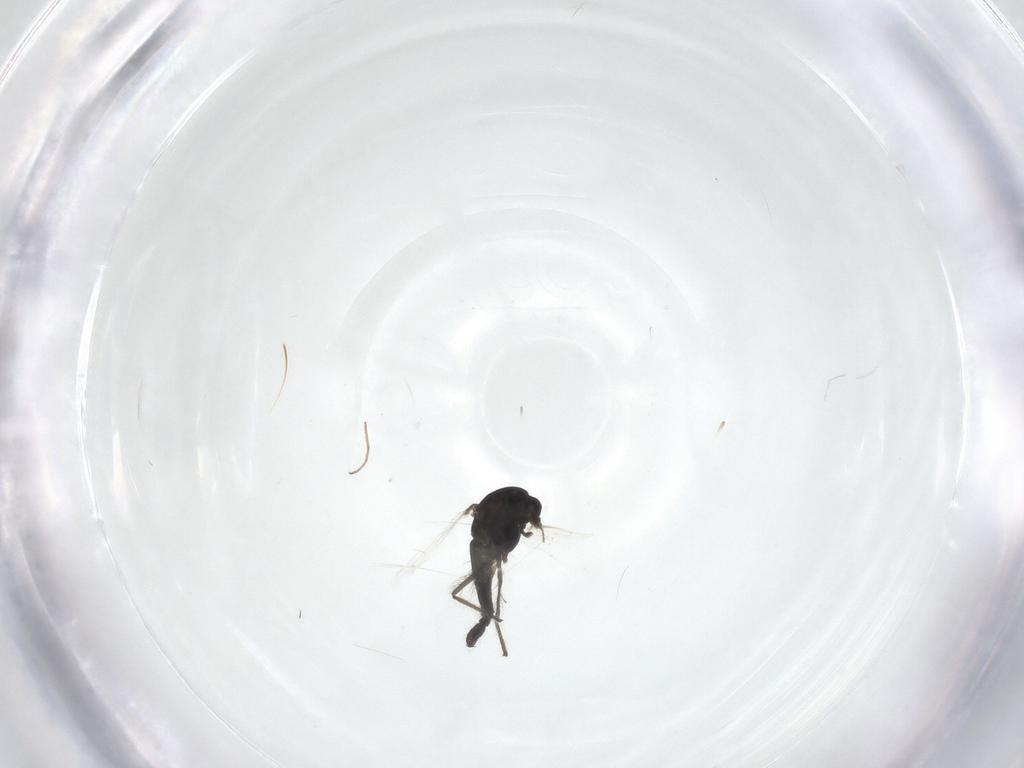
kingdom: Animalia
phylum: Arthropoda
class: Insecta
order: Diptera
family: Chironomidae
